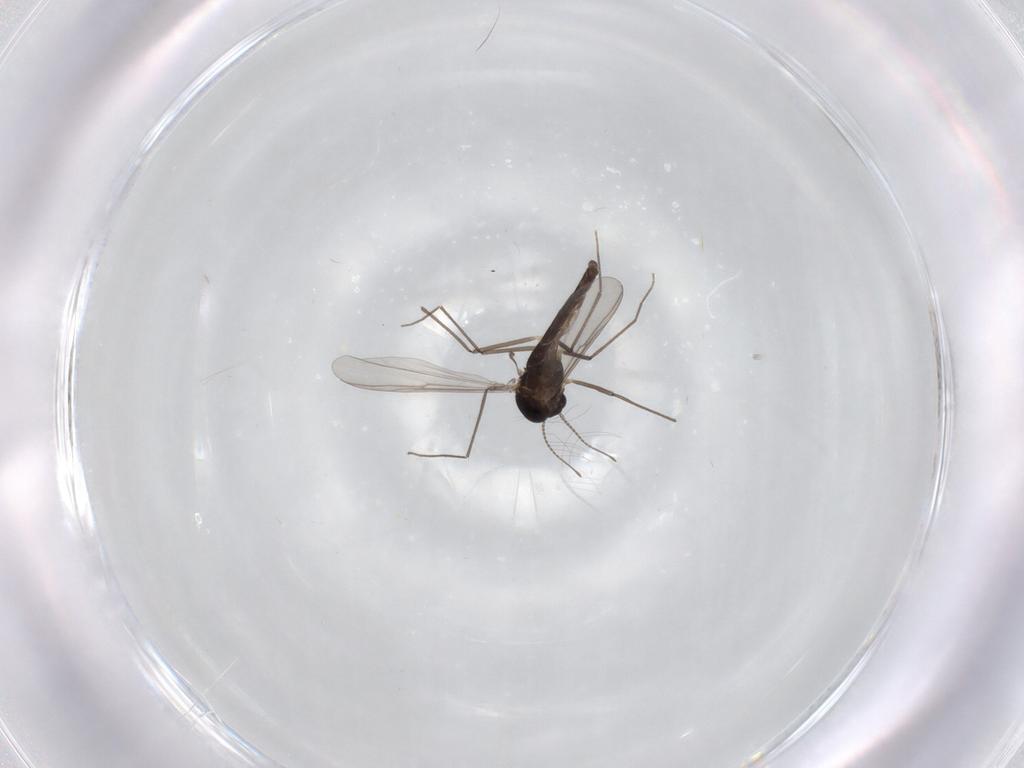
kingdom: Animalia
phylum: Arthropoda
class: Insecta
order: Diptera
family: Chironomidae
